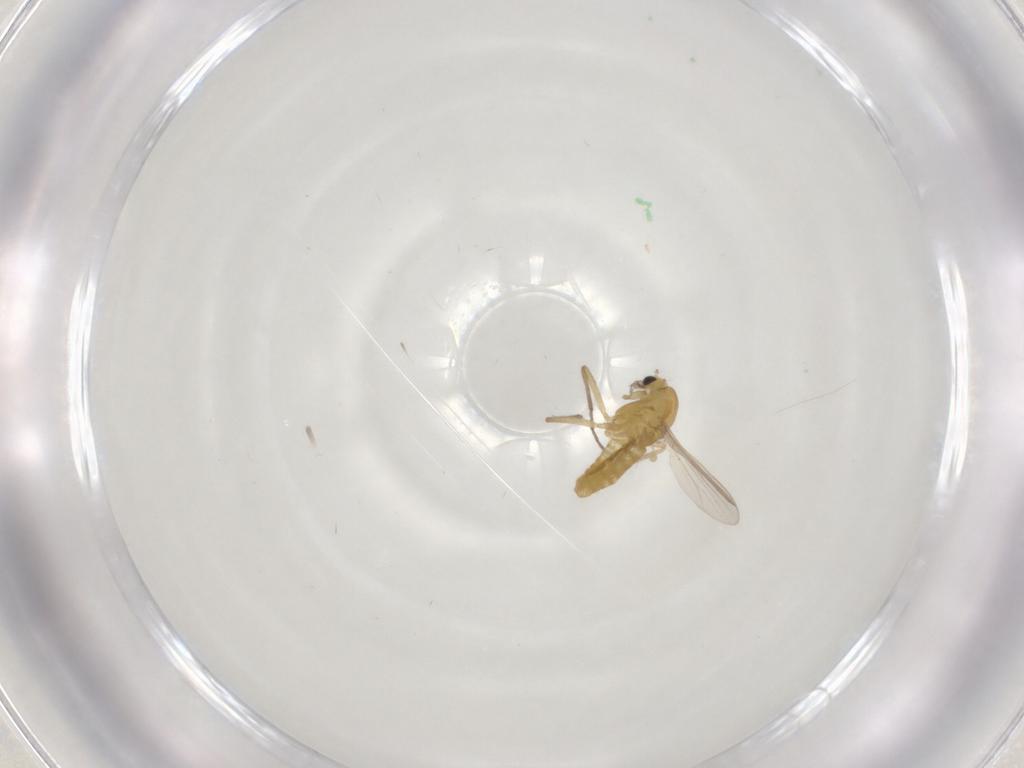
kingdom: Animalia
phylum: Arthropoda
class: Insecta
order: Diptera
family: Chironomidae
